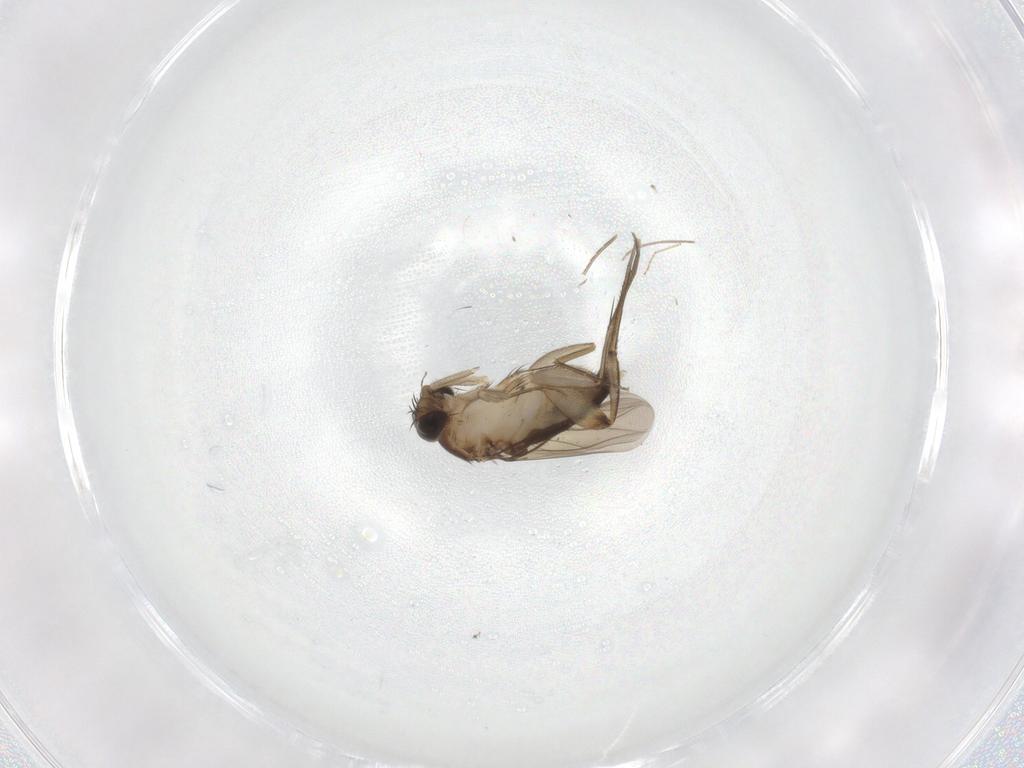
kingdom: Animalia
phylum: Arthropoda
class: Insecta
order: Diptera
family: Phoridae
